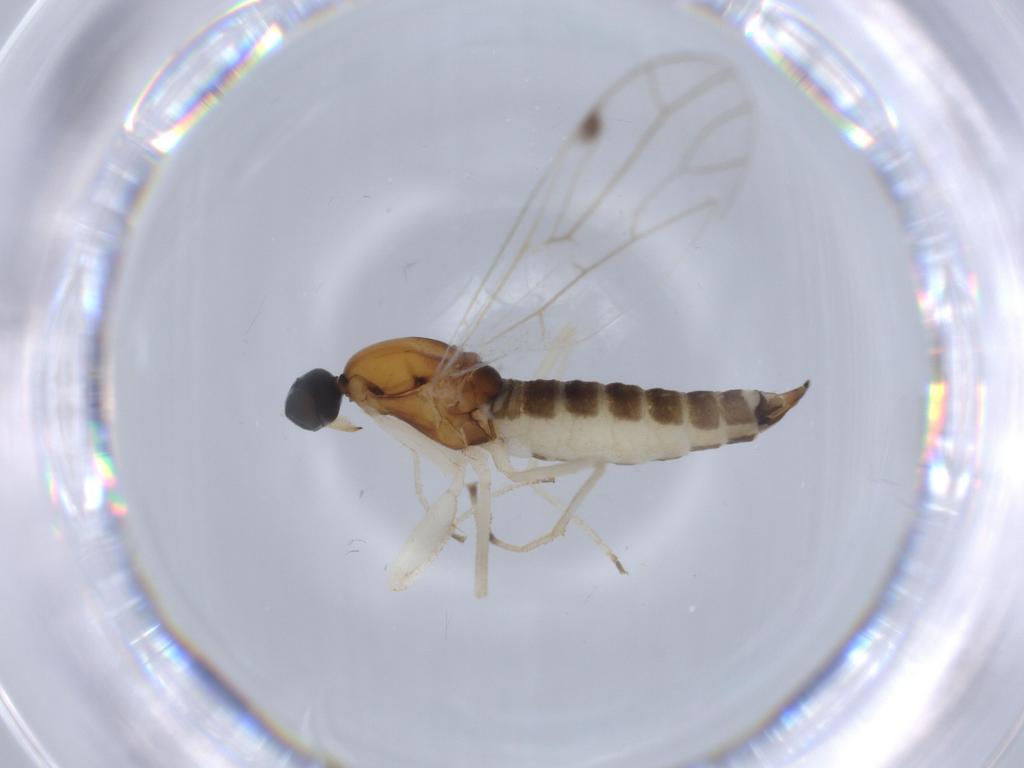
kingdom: Animalia
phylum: Arthropoda
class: Insecta
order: Diptera
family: Empididae
